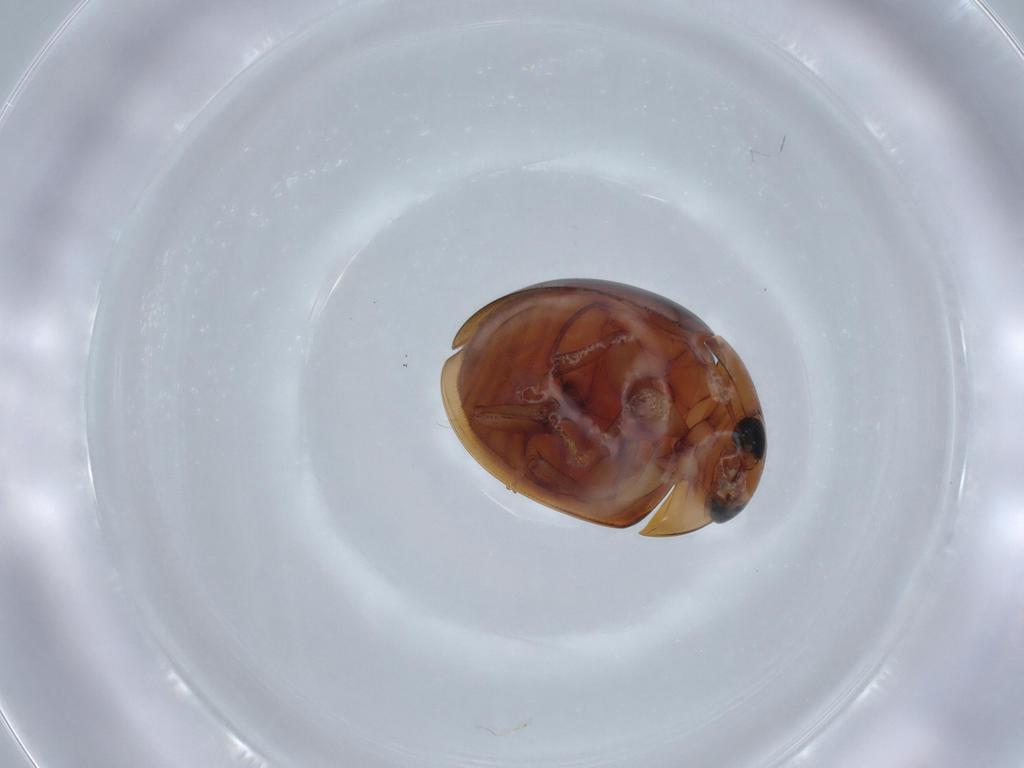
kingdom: Animalia
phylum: Arthropoda
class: Insecta
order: Coleoptera
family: Phalacridae
